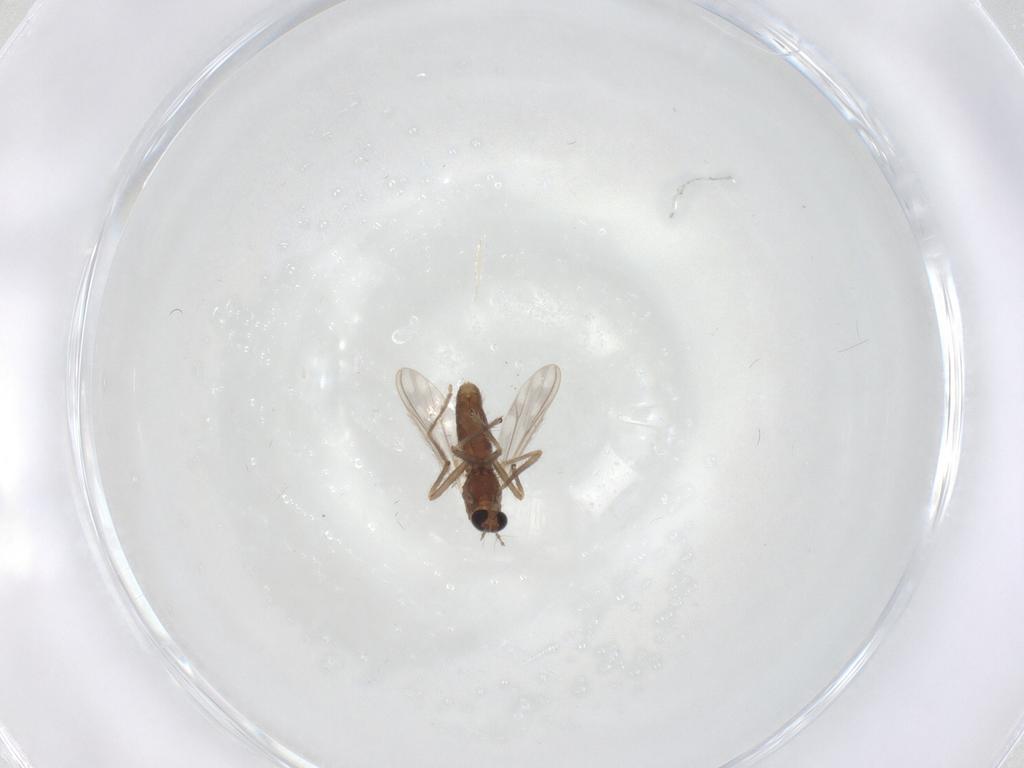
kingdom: Animalia
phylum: Arthropoda
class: Insecta
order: Diptera
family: Chironomidae
